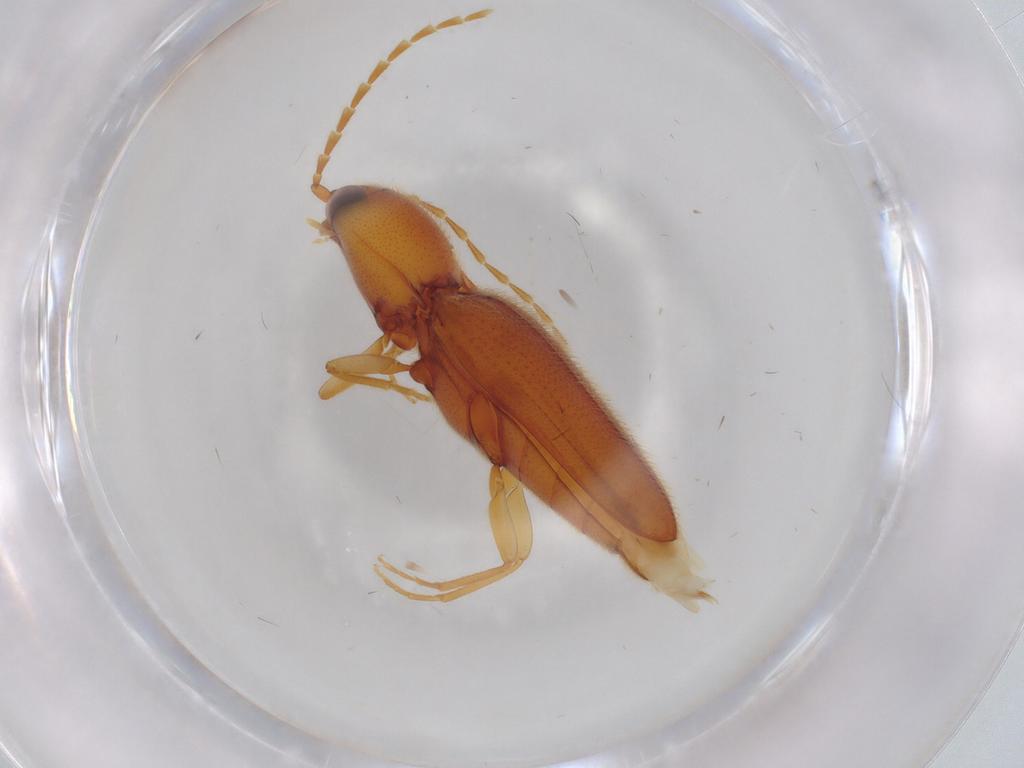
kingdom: Animalia
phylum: Arthropoda
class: Insecta
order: Coleoptera
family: Elateridae
